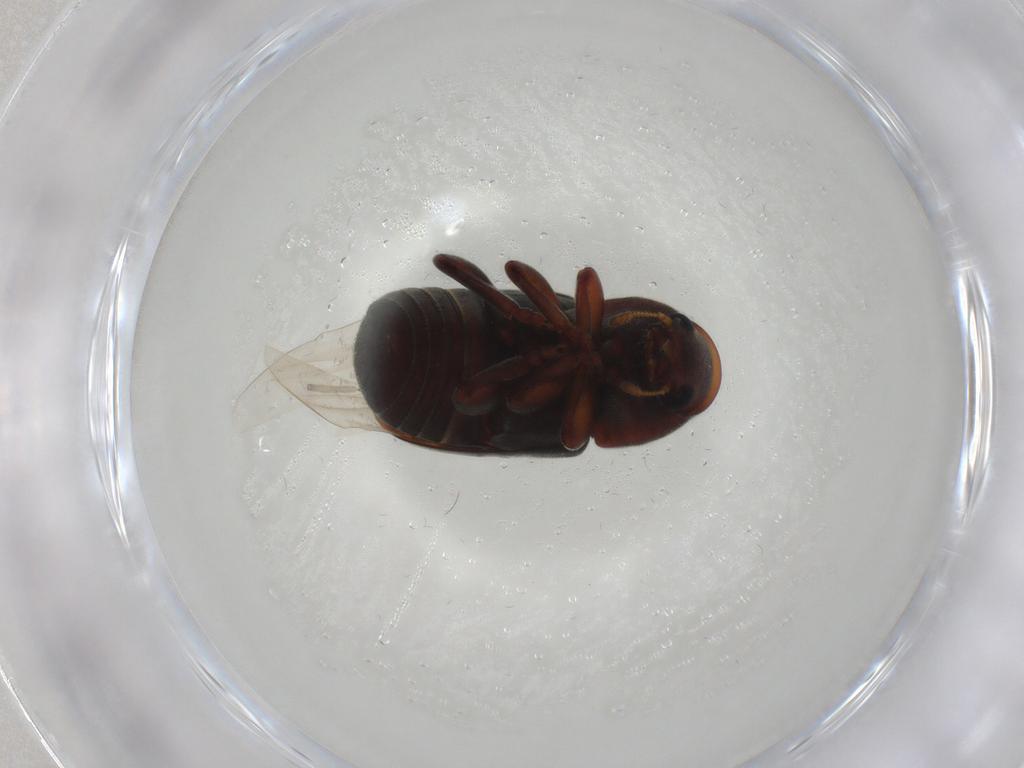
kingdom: Animalia
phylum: Arthropoda
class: Insecta
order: Coleoptera
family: Anthribidae
